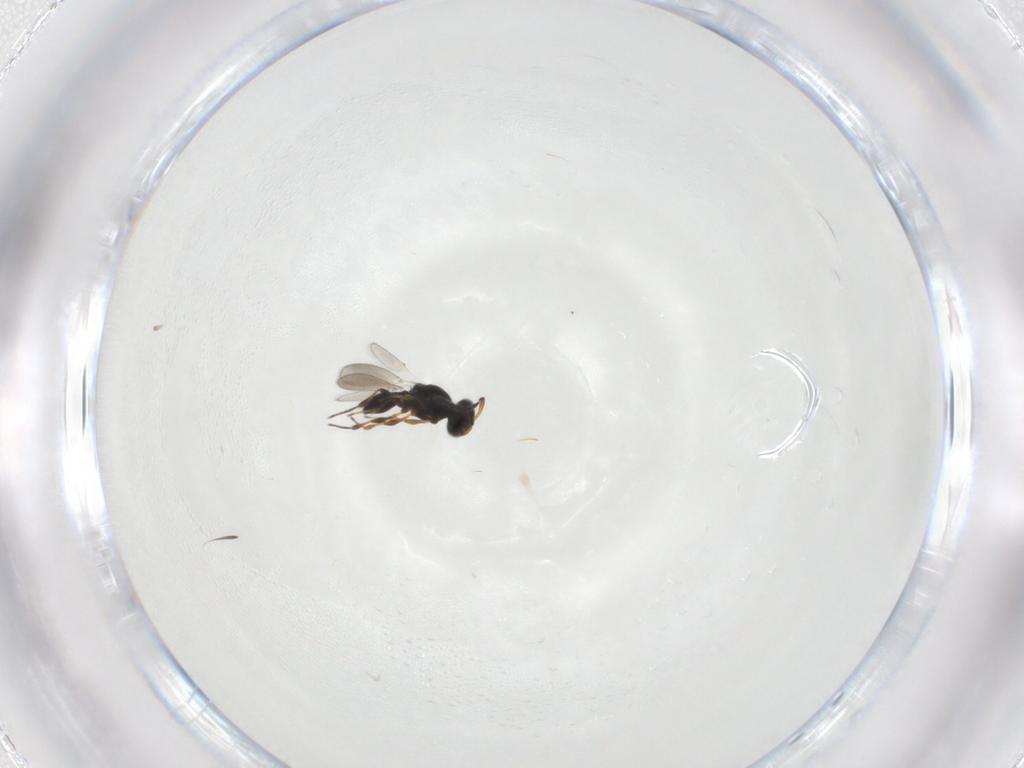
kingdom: Animalia
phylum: Arthropoda
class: Insecta
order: Hymenoptera
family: Platygastridae
